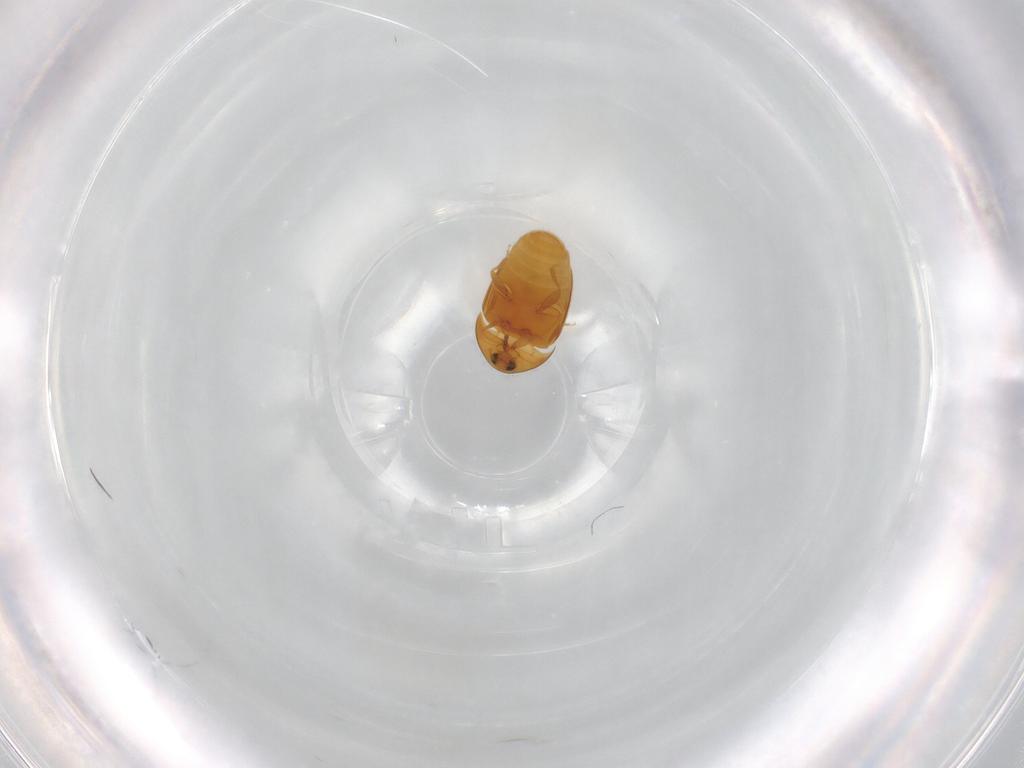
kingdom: Animalia
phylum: Arthropoda
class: Insecta
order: Coleoptera
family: Corylophidae
